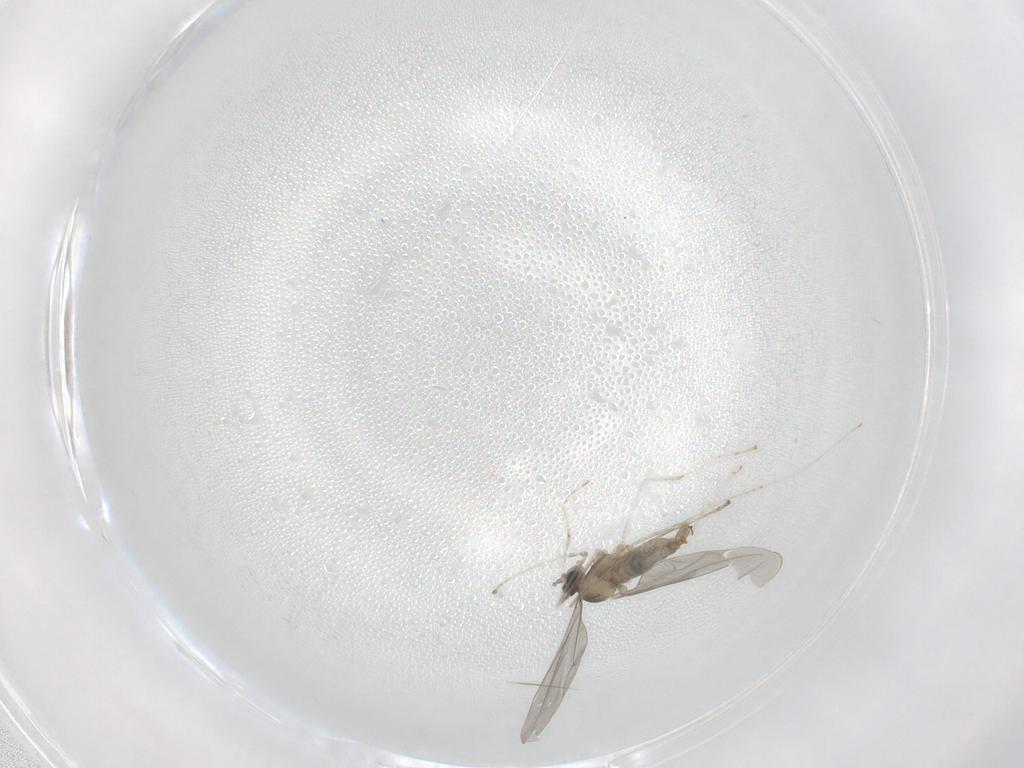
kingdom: Animalia
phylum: Arthropoda
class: Insecta
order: Diptera
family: Cecidomyiidae
